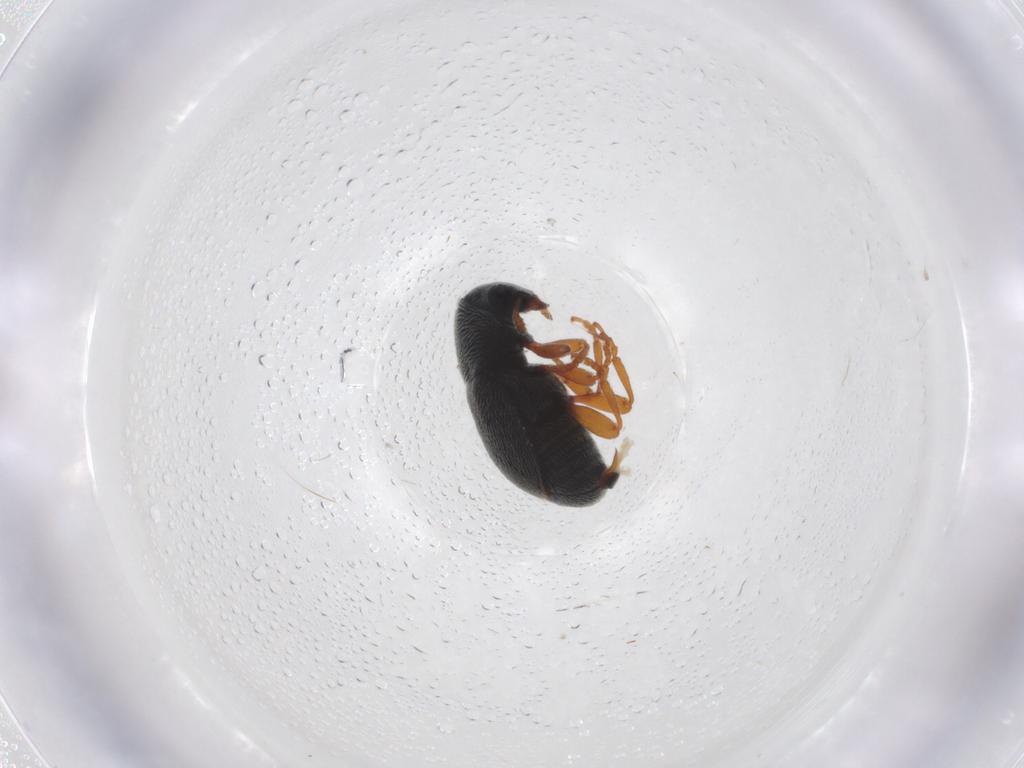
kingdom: Animalia
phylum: Arthropoda
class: Insecta
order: Coleoptera
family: Anthribidae
